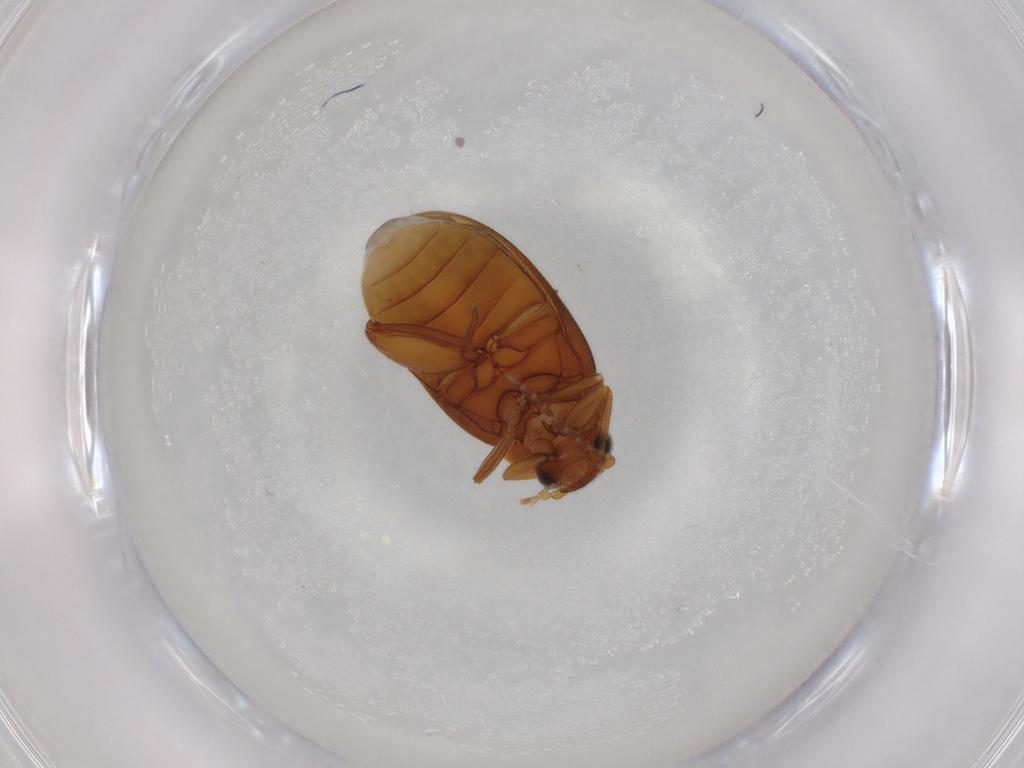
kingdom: Animalia
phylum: Arthropoda
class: Insecta
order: Coleoptera
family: Scirtidae
